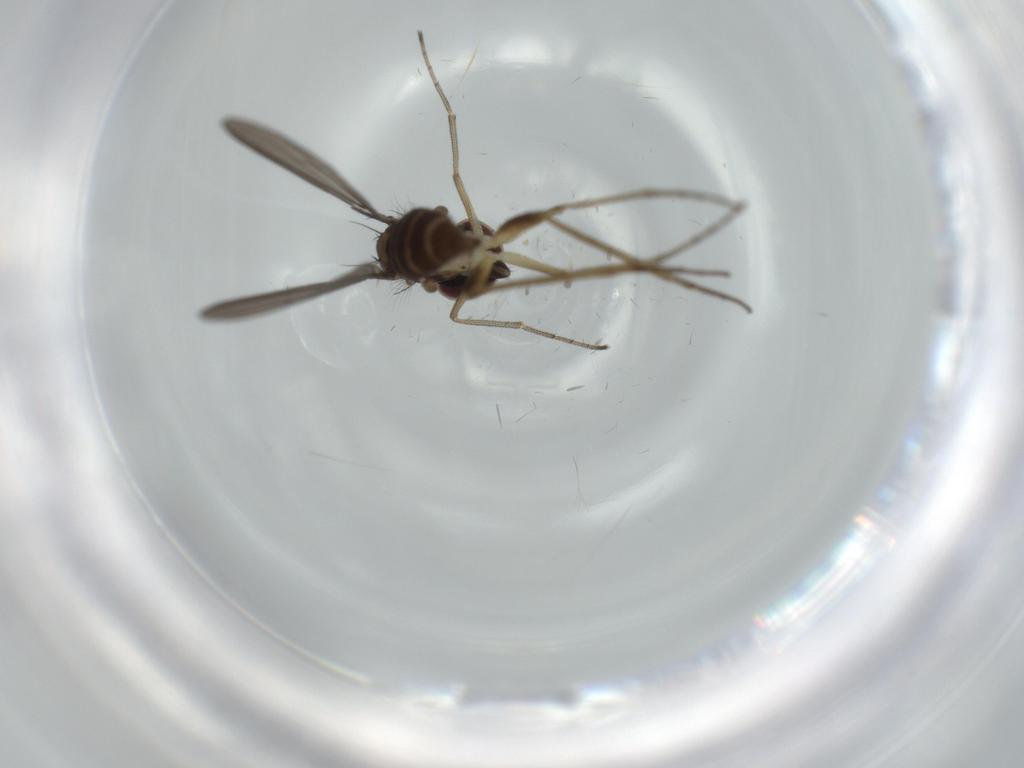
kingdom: Animalia
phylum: Arthropoda
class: Insecta
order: Diptera
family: Dolichopodidae
